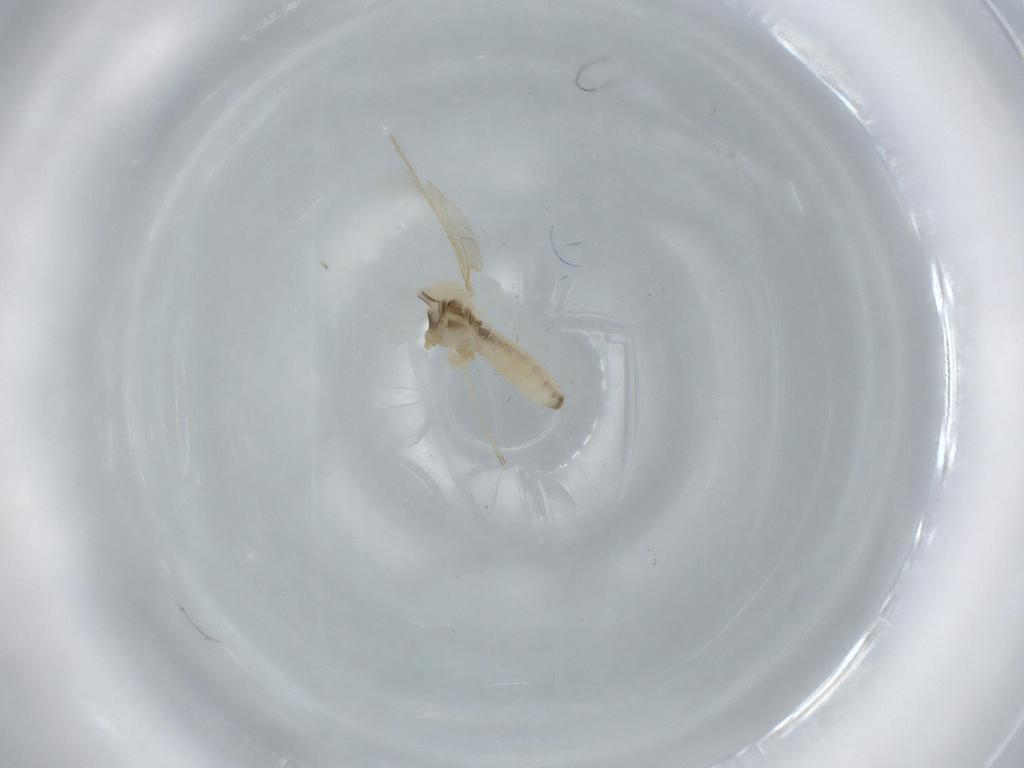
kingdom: Animalia
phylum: Arthropoda
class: Insecta
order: Diptera
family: Cecidomyiidae
